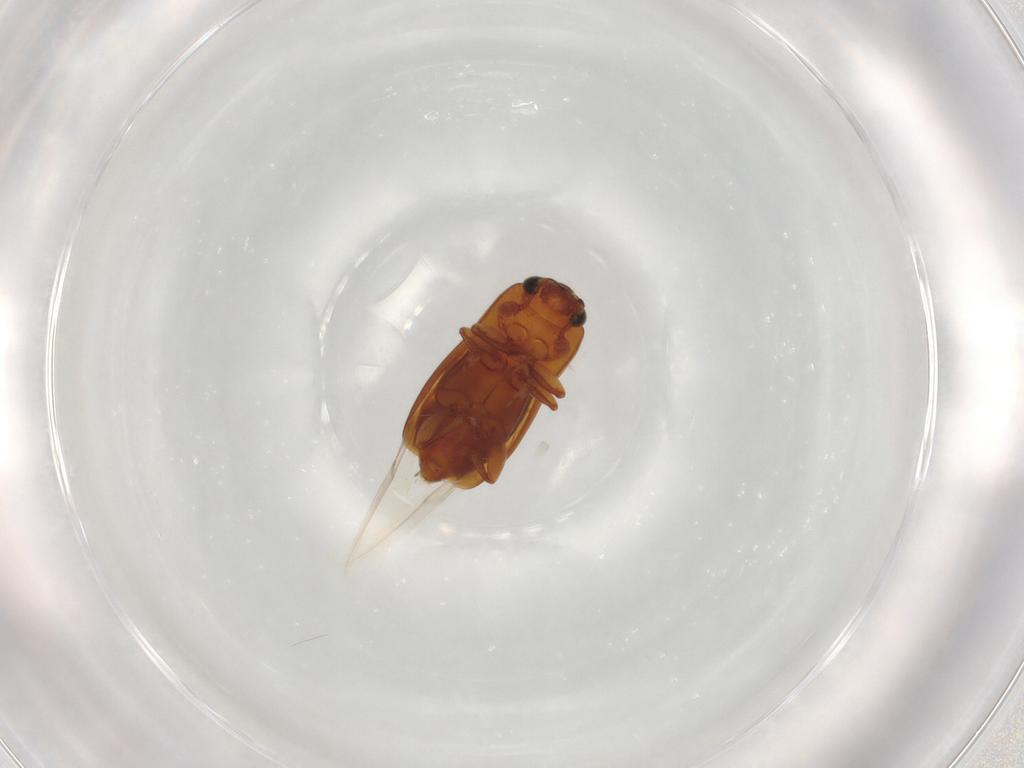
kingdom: Animalia
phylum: Arthropoda
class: Insecta
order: Coleoptera
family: Nitidulidae
